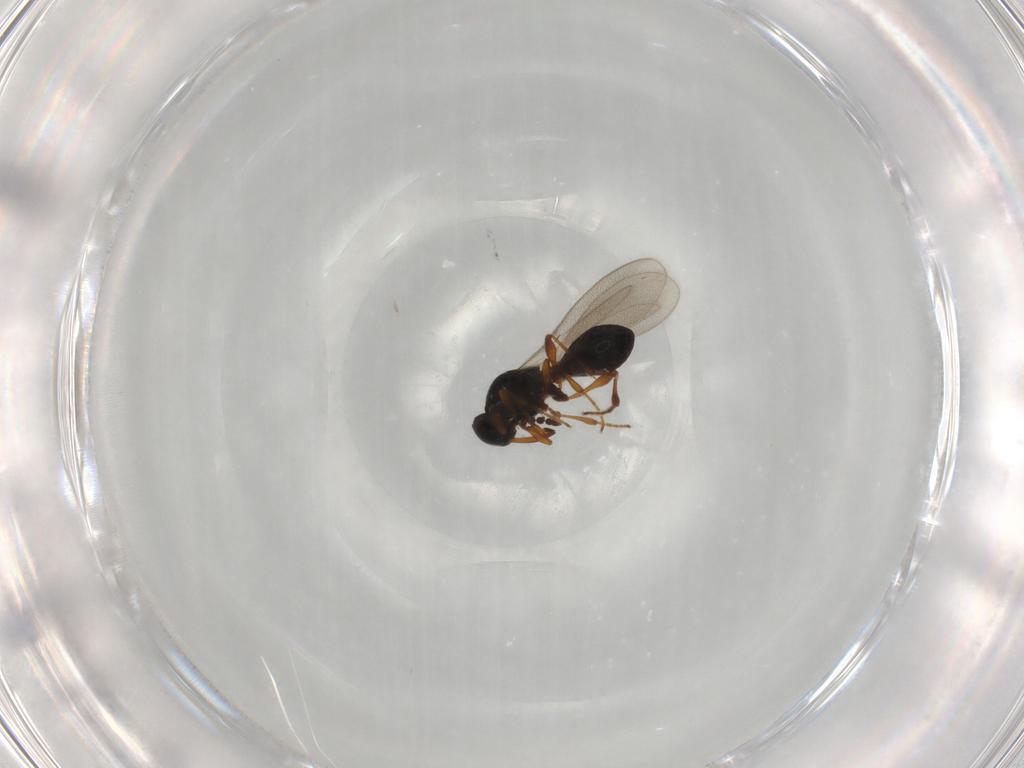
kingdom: Animalia
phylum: Arthropoda
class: Insecta
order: Hymenoptera
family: Platygastridae
